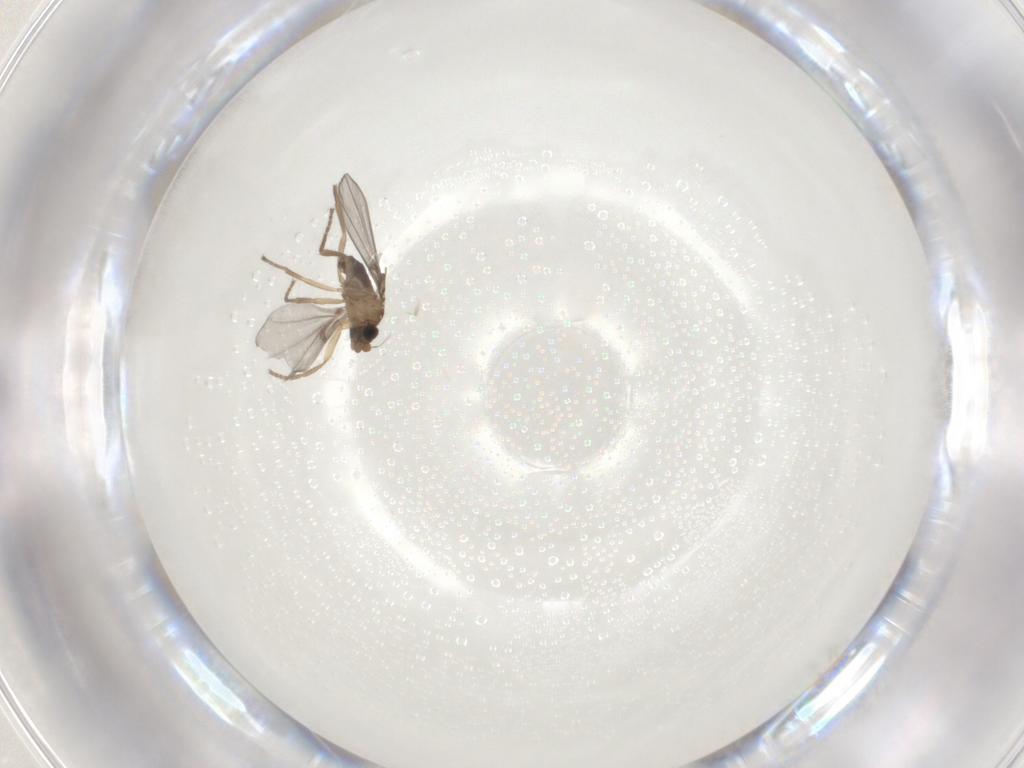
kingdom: Animalia
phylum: Arthropoda
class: Insecta
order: Diptera
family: Phoridae
